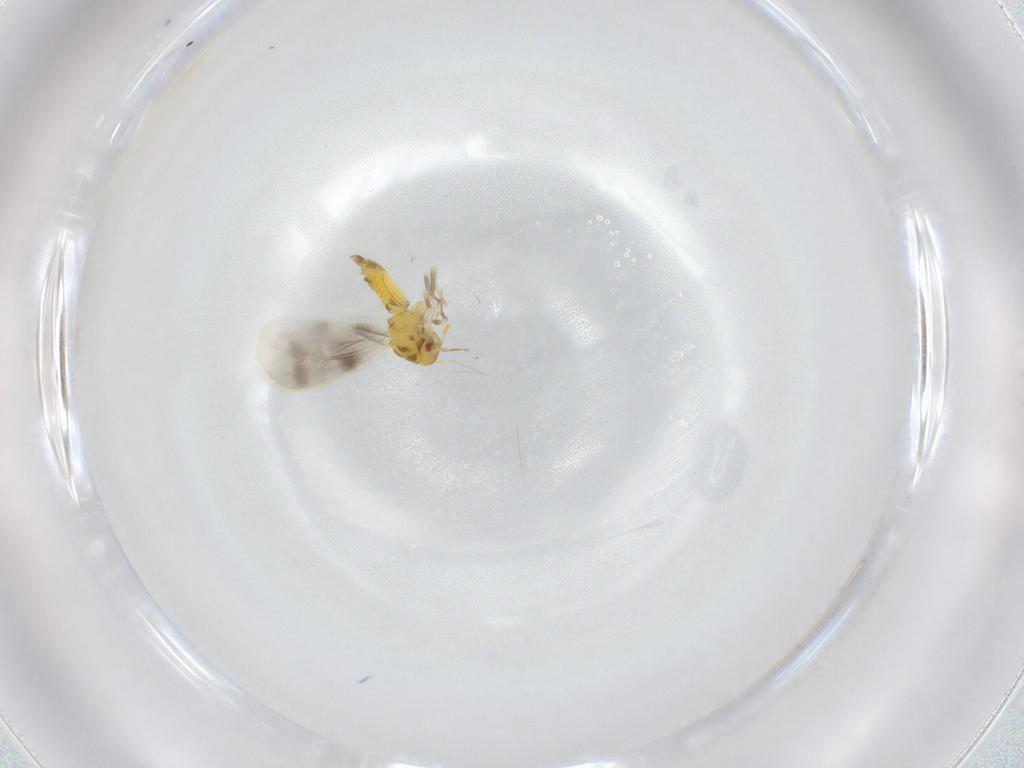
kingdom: Animalia
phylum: Arthropoda
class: Insecta
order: Hemiptera
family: Aleyrodidae
